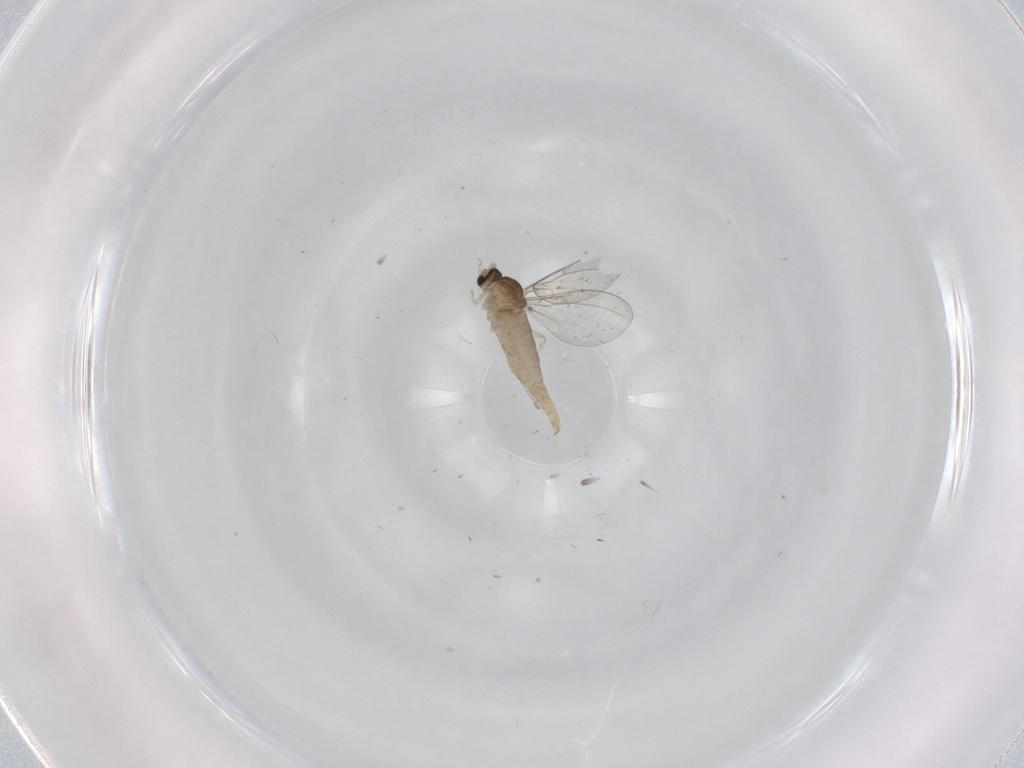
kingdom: Animalia
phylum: Arthropoda
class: Insecta
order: Diptera
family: Cecidomyiidae
